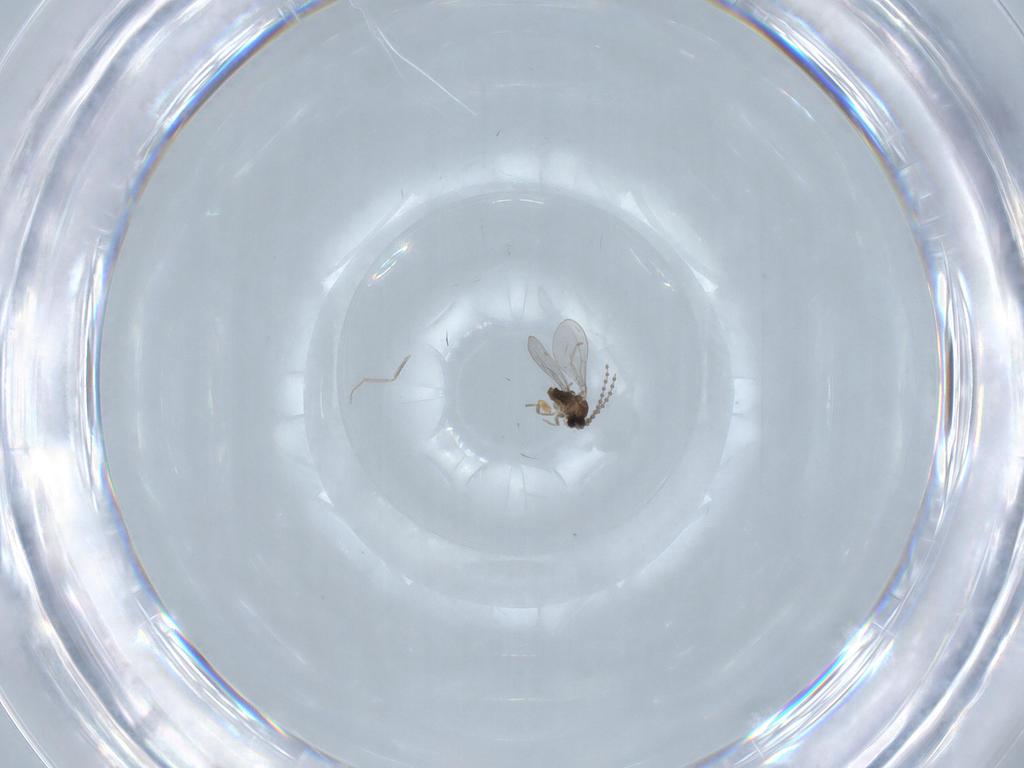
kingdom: Animalia
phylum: Arthropoda
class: Insecta
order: Diptera
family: Cecidomyiidae
